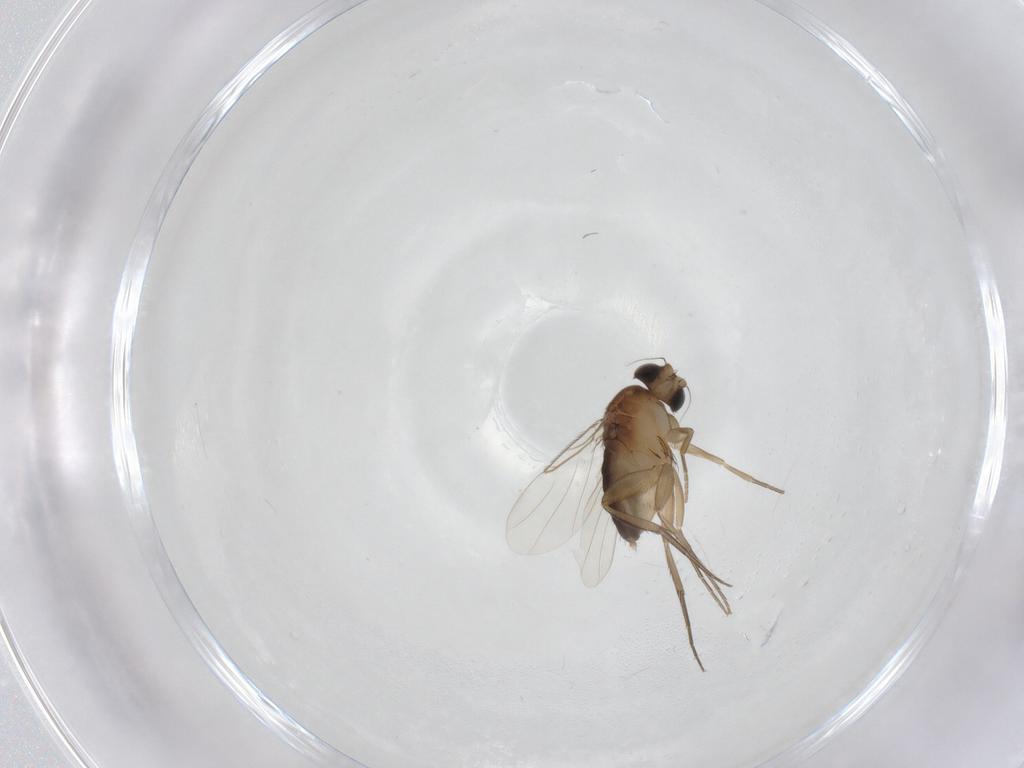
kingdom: Animalia
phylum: Arthropoda
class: Insecta
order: Diptera
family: Phoridae
